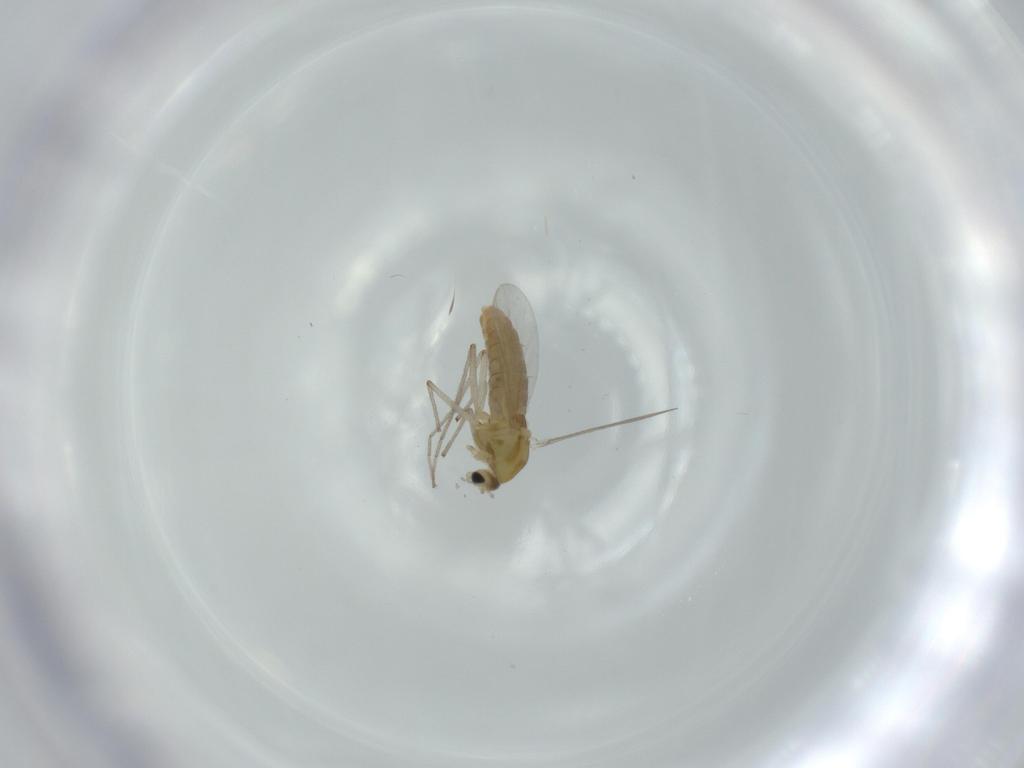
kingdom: Animalia
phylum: Arthropoda
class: Insecta
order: Diptera
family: Chironomidae
